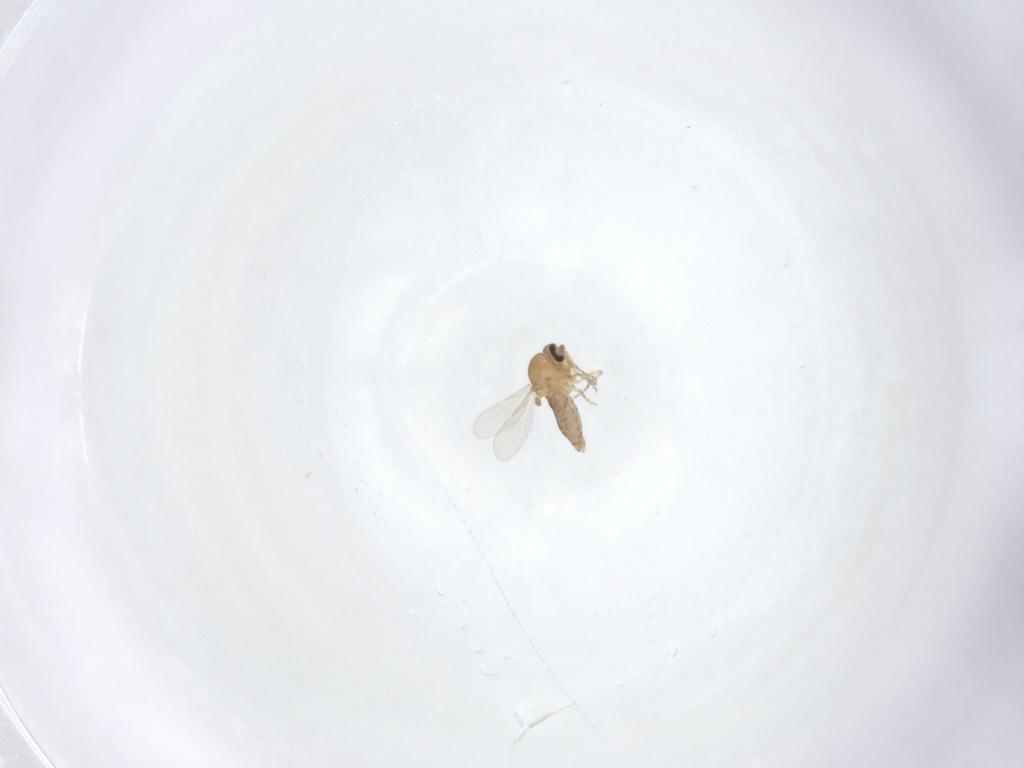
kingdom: Animalia
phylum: Arthropoda
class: Insecta
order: Diptera
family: Ceratopogonidae
